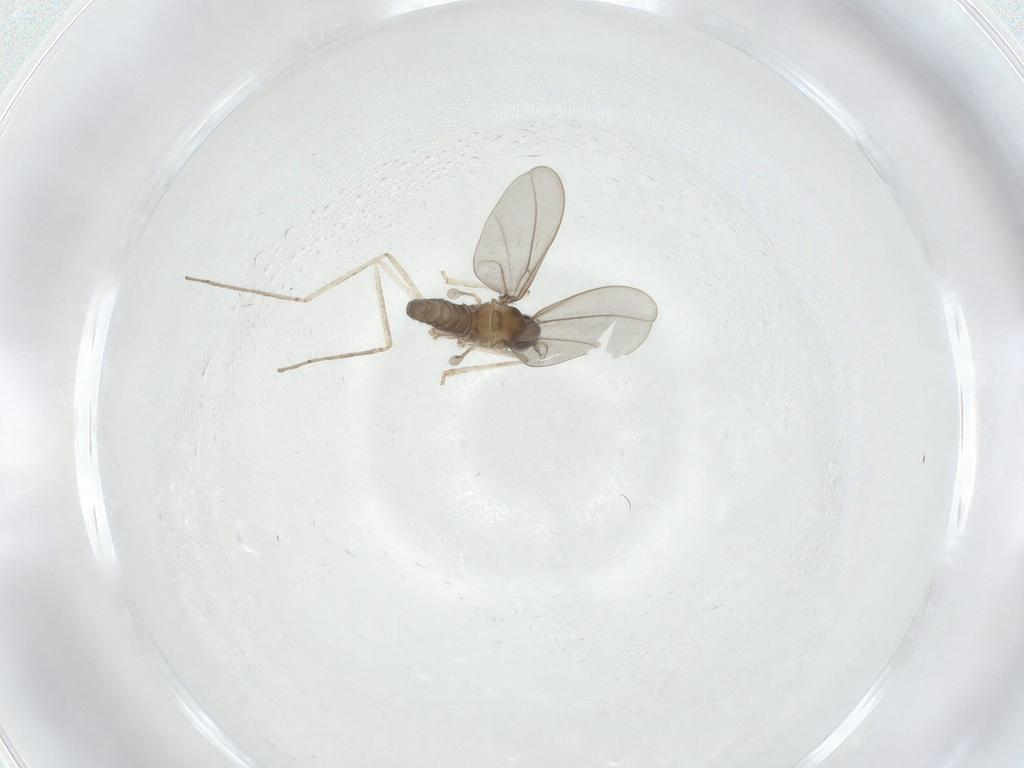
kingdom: Animalia
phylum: Arthropoda
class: Insecta
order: Diptera
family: Cecidomyiidae
